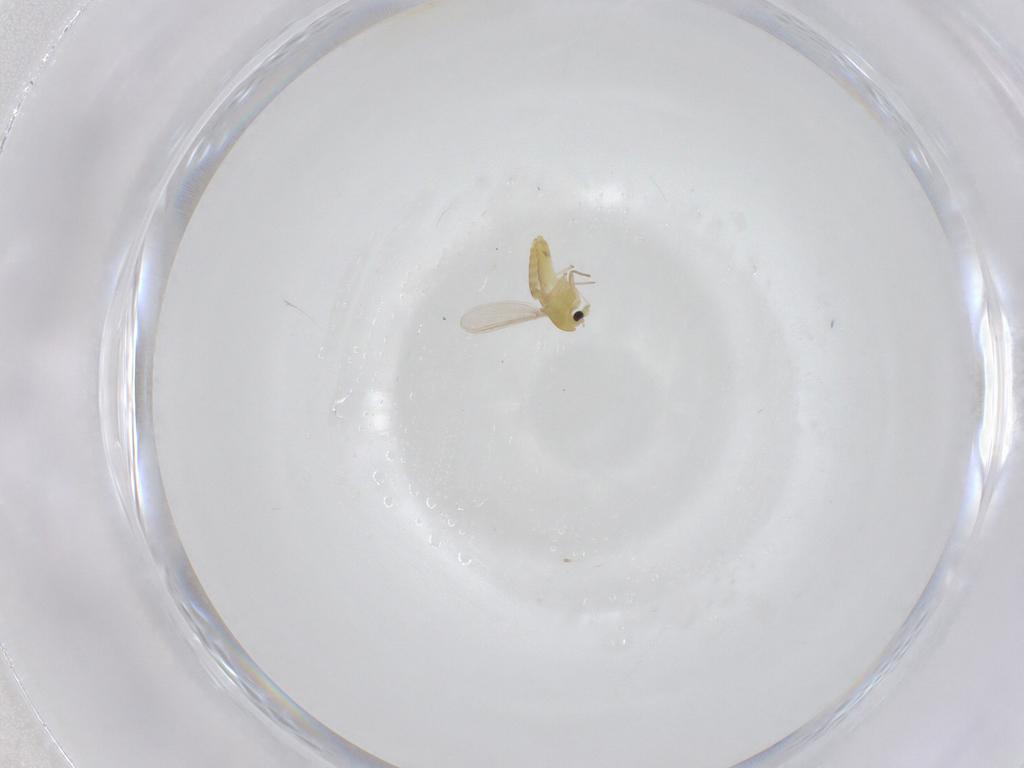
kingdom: Animalia
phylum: Arthropoda
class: Insecta
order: Diptera
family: Chironomidae
